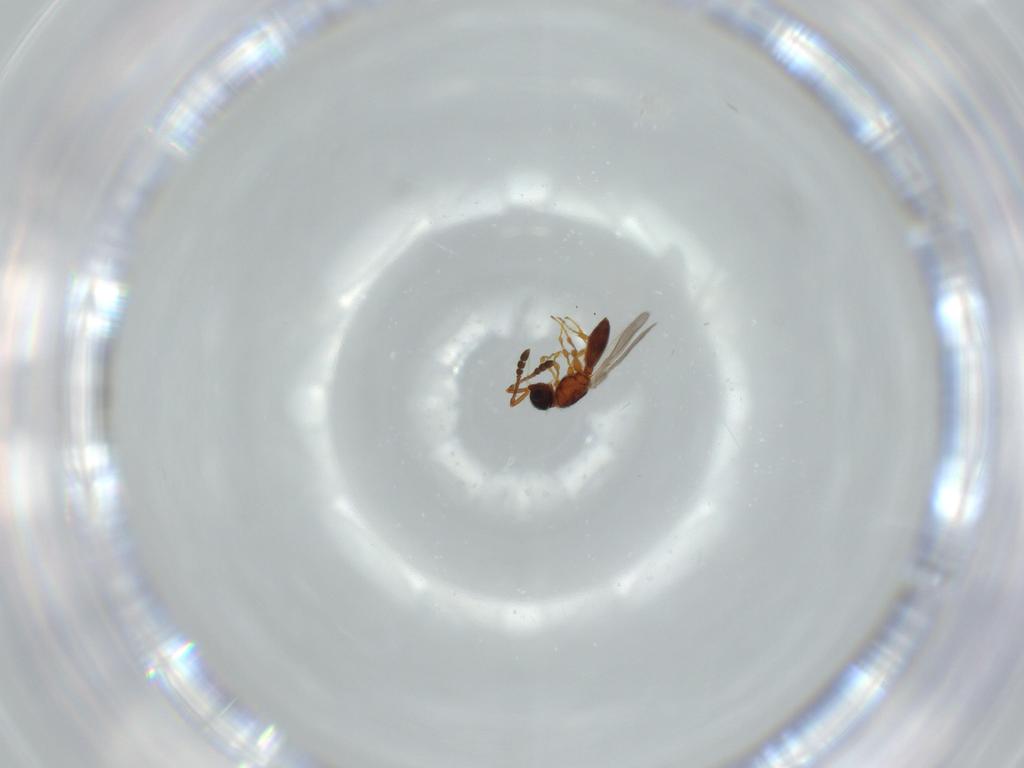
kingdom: Animalia
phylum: Arthropoda
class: Insecta
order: Hymenoptera
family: Diapriidae
